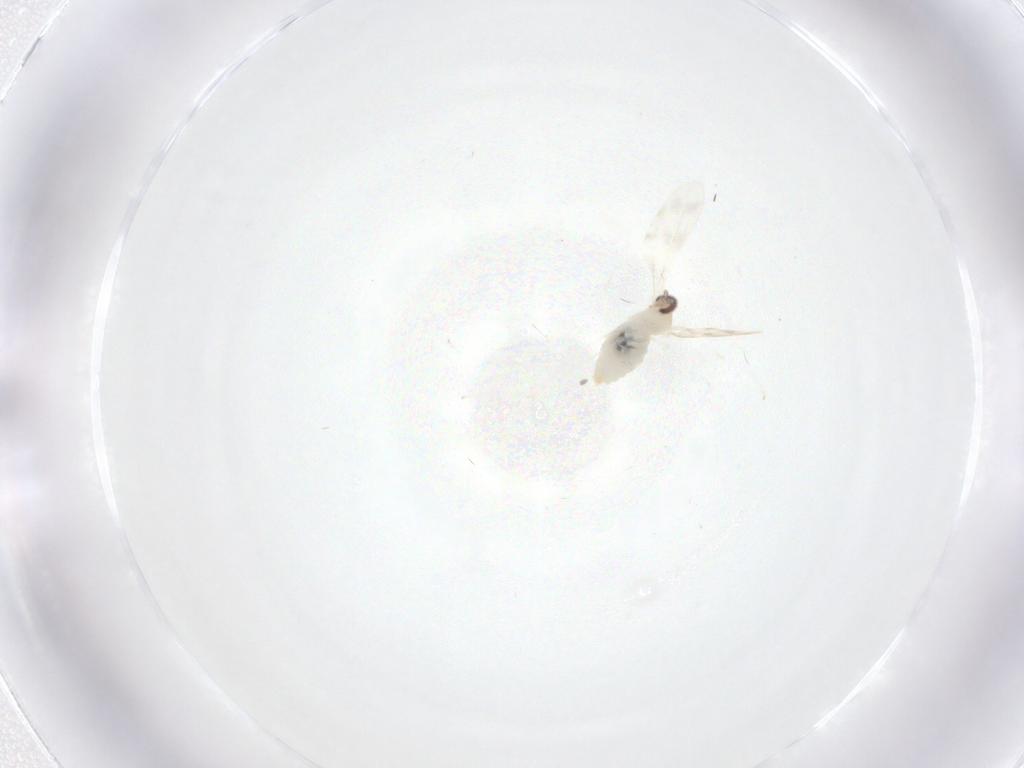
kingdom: Animalia
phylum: Arthropoda
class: Insecta
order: Diptera
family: Cecidomyiidae
